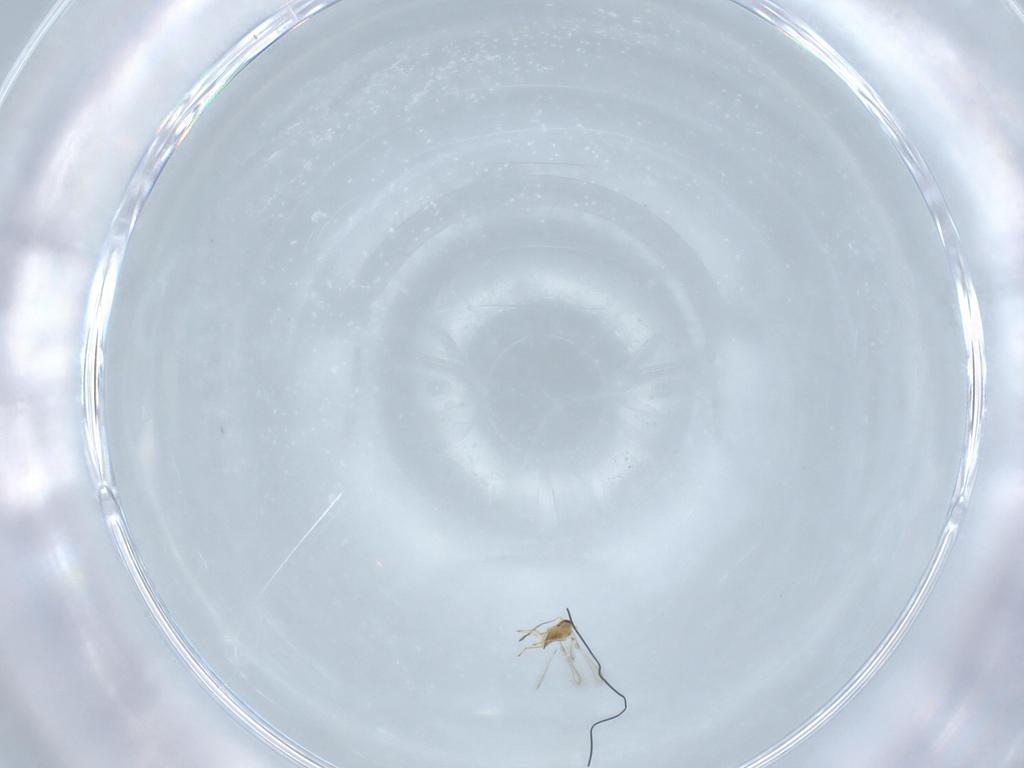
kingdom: Animalia
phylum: Arthropoda
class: Insecta
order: Hymenoptera
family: Mymaridae
